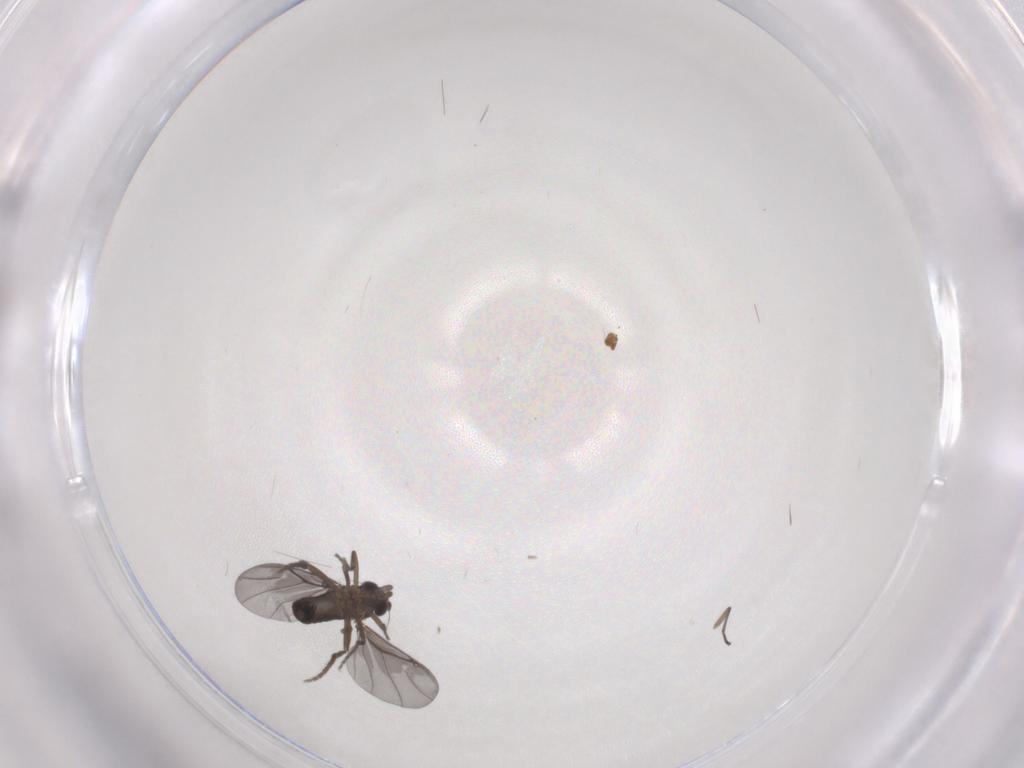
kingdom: Animalia
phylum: Arthropoda
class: Insecta
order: Diptera
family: Phoridae
